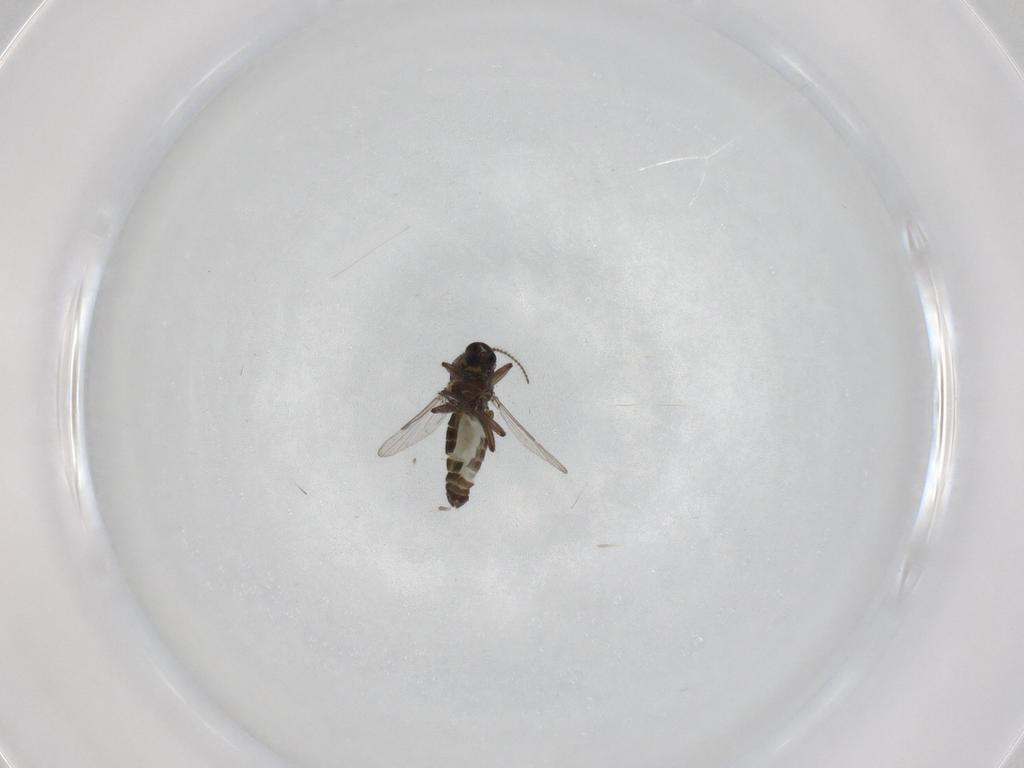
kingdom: Animalia
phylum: Arthropoda
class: Insecta
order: Diptera
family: Ceratopogonidae
